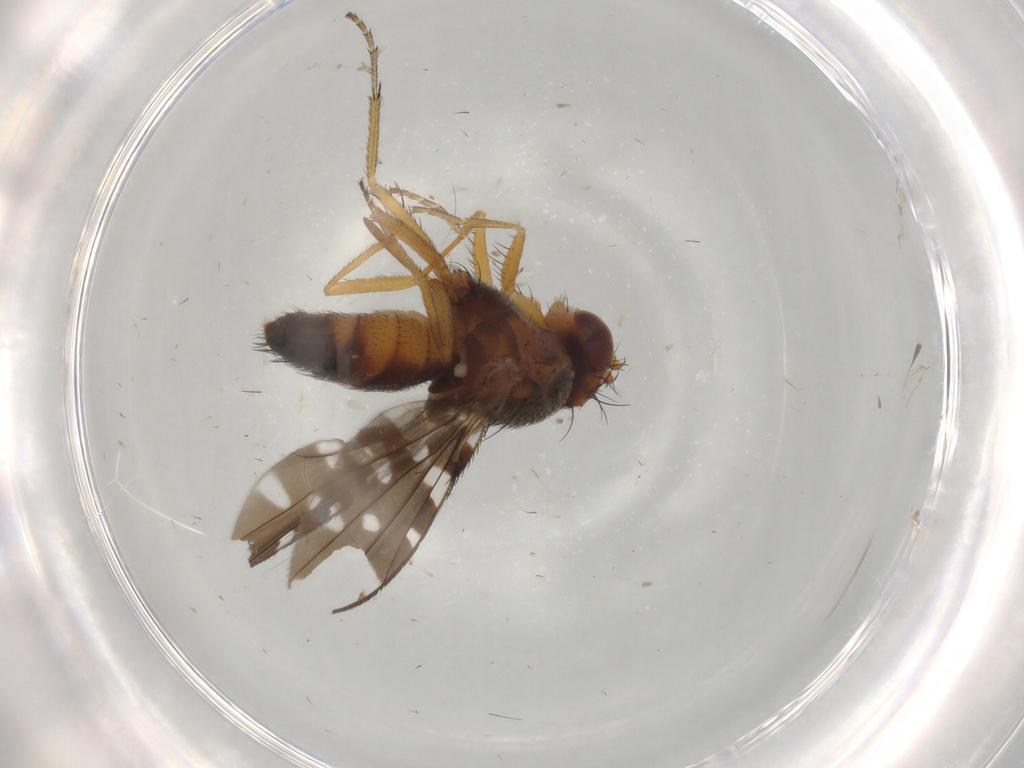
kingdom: Animalia
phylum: Arthropoda
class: Insecta
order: Diptera
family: Ephydridae
